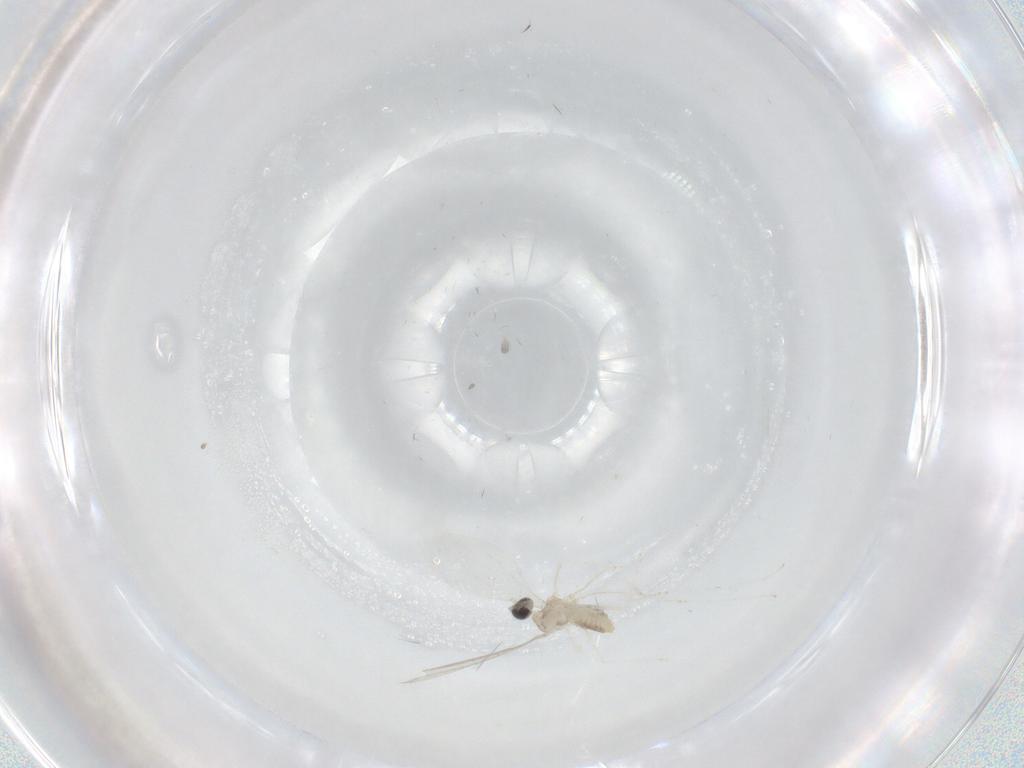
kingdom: Animalia
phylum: Arthropoda
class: Insecta
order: Diptera
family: Cecidomyiidae
